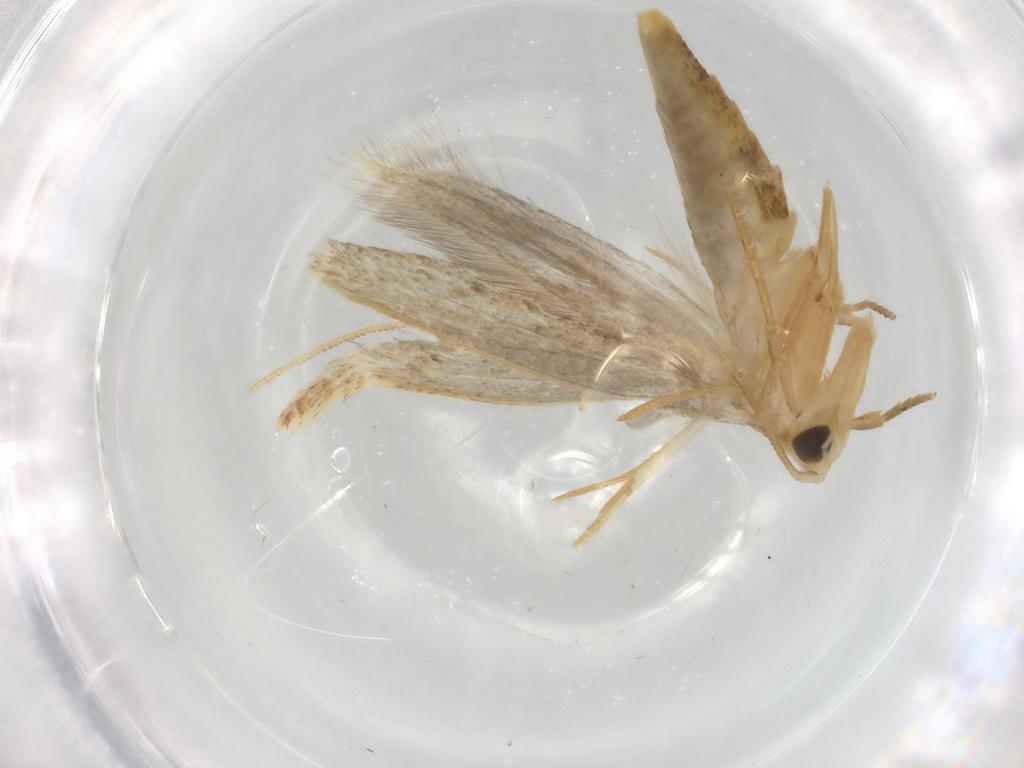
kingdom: Animalia
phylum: Arthropoda
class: Insecta
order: Lepidoptera
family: Tineidae
